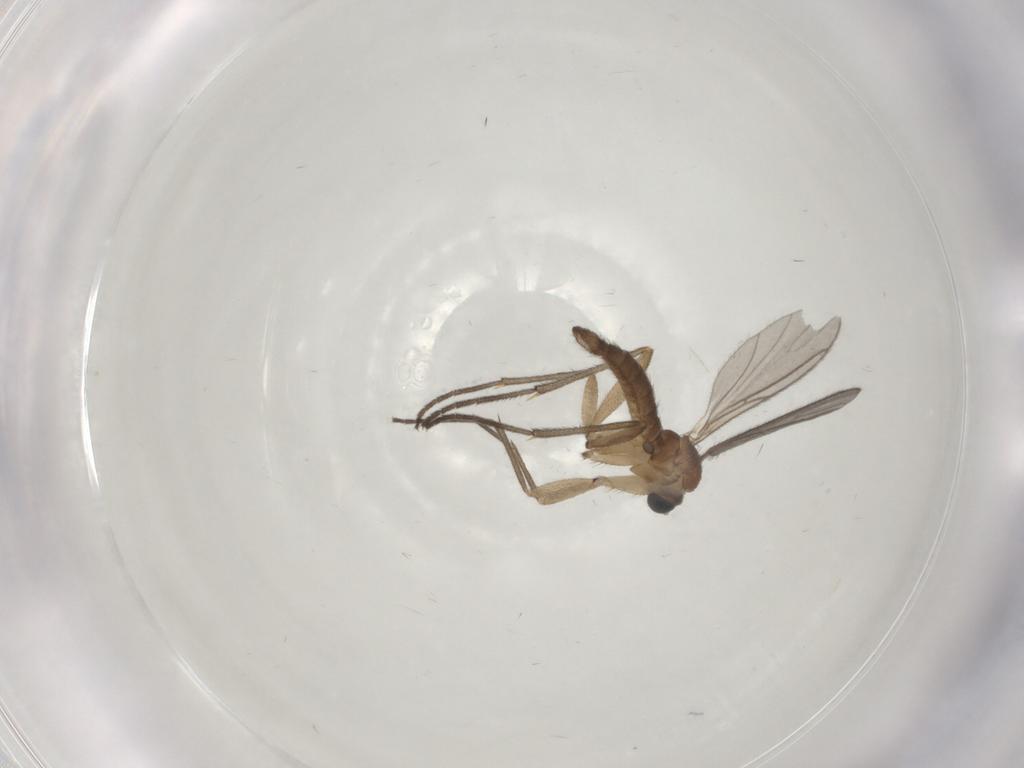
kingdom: Animalia
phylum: Arthropoda
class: Insecta
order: Diptera
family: Sciaridae
